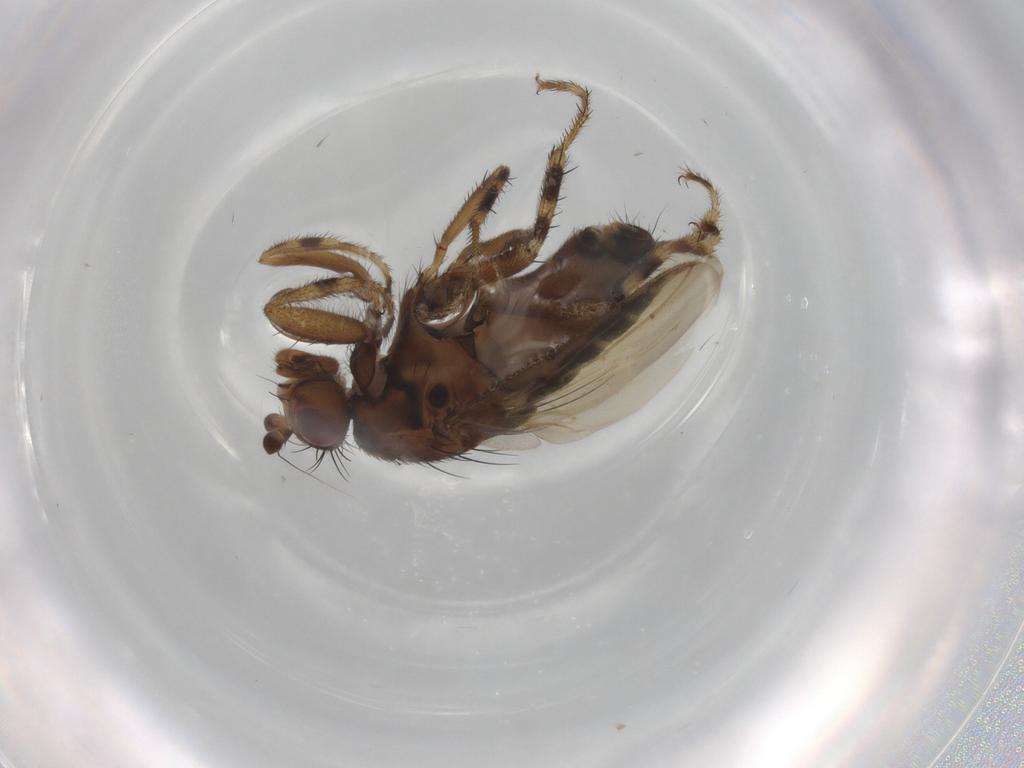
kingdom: Animalia
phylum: Arthropoda
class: Insecta
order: Diptera
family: Sphaeroceridae
